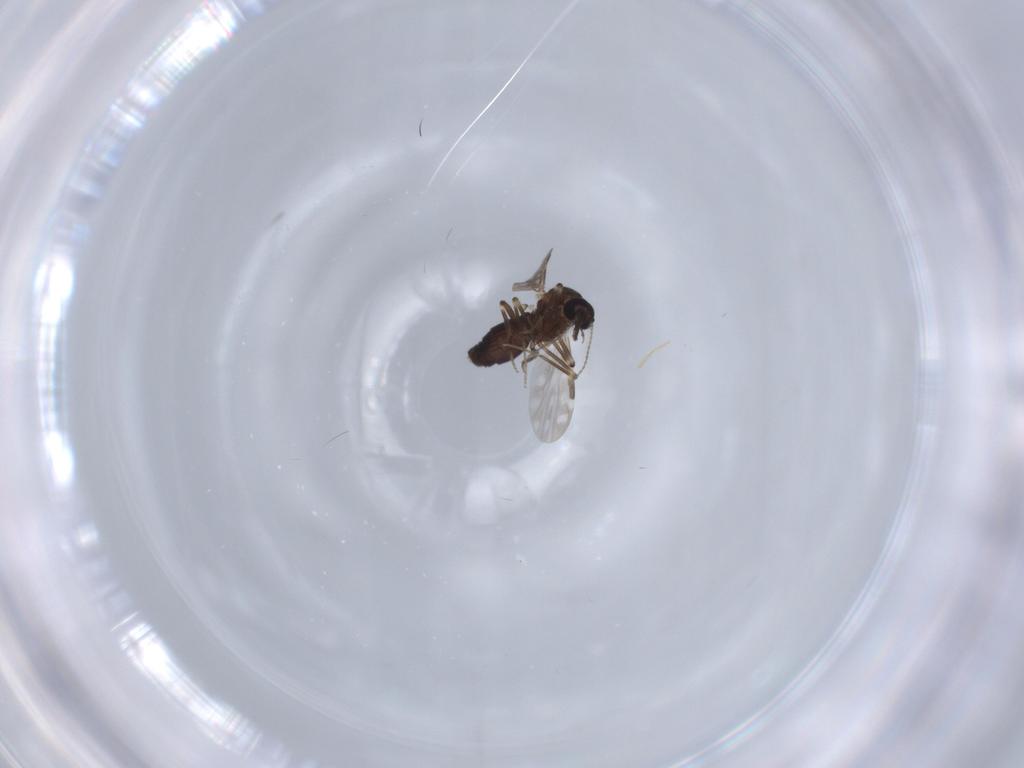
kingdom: Animalia
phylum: Arthropoda
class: Insecta
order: Diptera
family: Ceratopogonidae
